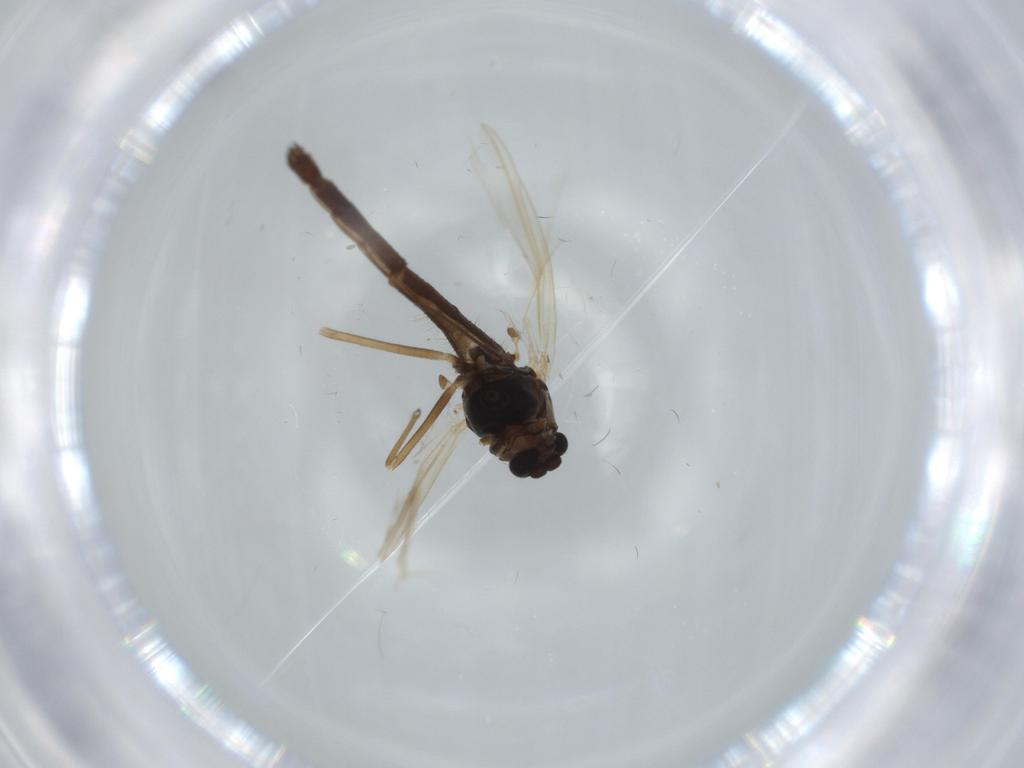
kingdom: Animalia
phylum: Arthropoda
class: Insecta
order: Diptera
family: Chironomidae
